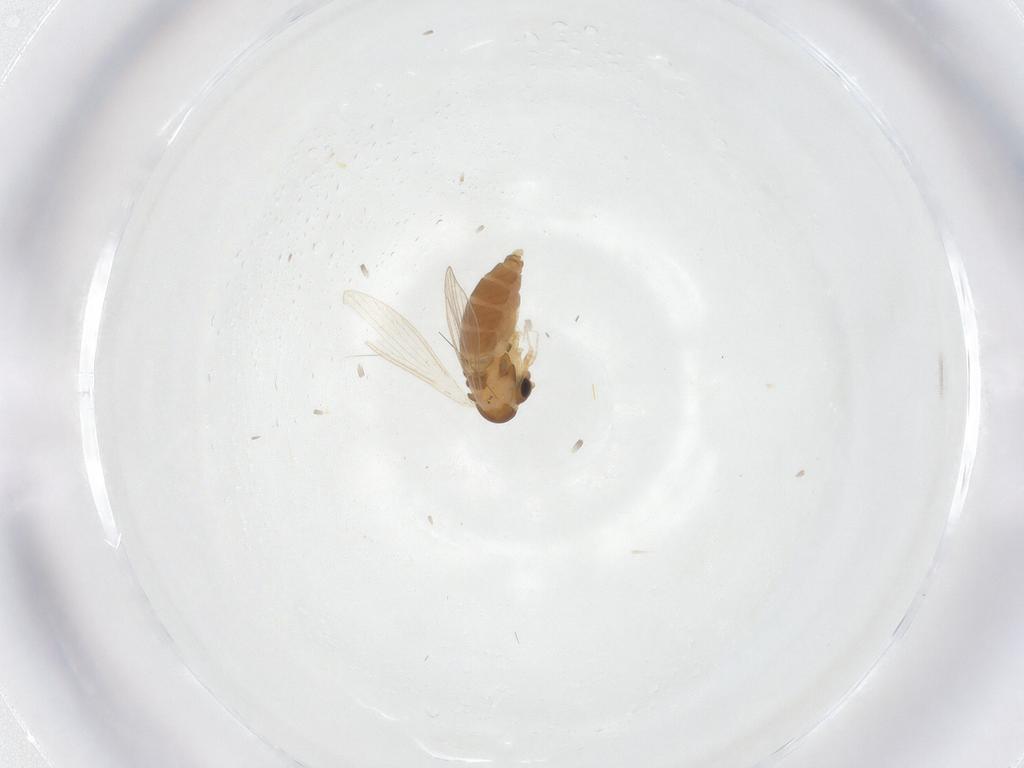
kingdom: Animalia
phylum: Arthropoda
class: Insecta
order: Diptera
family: Psychodidae
